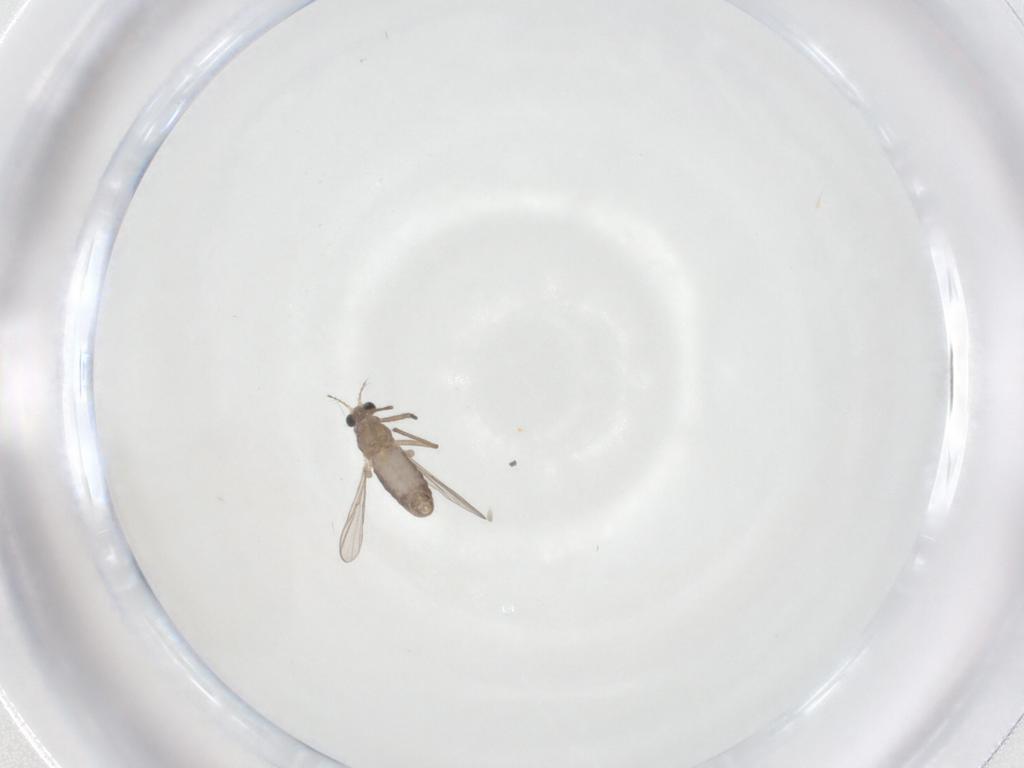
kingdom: Animalia
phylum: Arthropoda
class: Insecta
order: Diptera
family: Chironomidae
